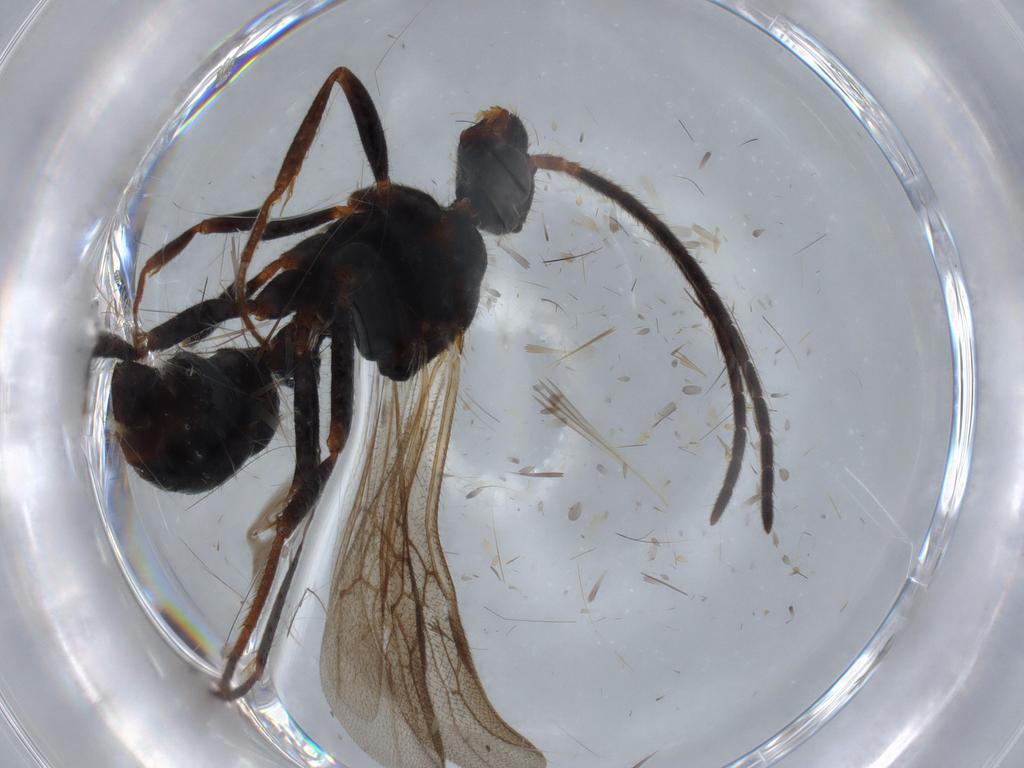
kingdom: Animalia
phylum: Arthropoda
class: Insecta
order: Hymenoptera
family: Formicidae
